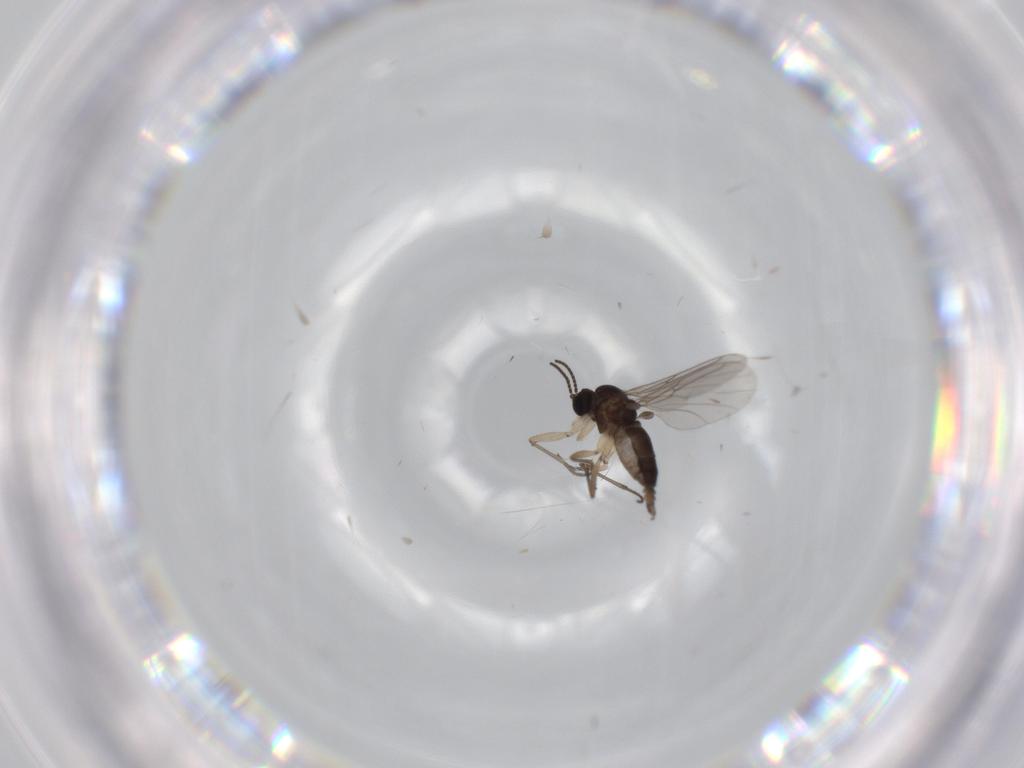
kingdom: Animalia
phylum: Arthropoda
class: Insecta
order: Diptera
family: Sciaridae
